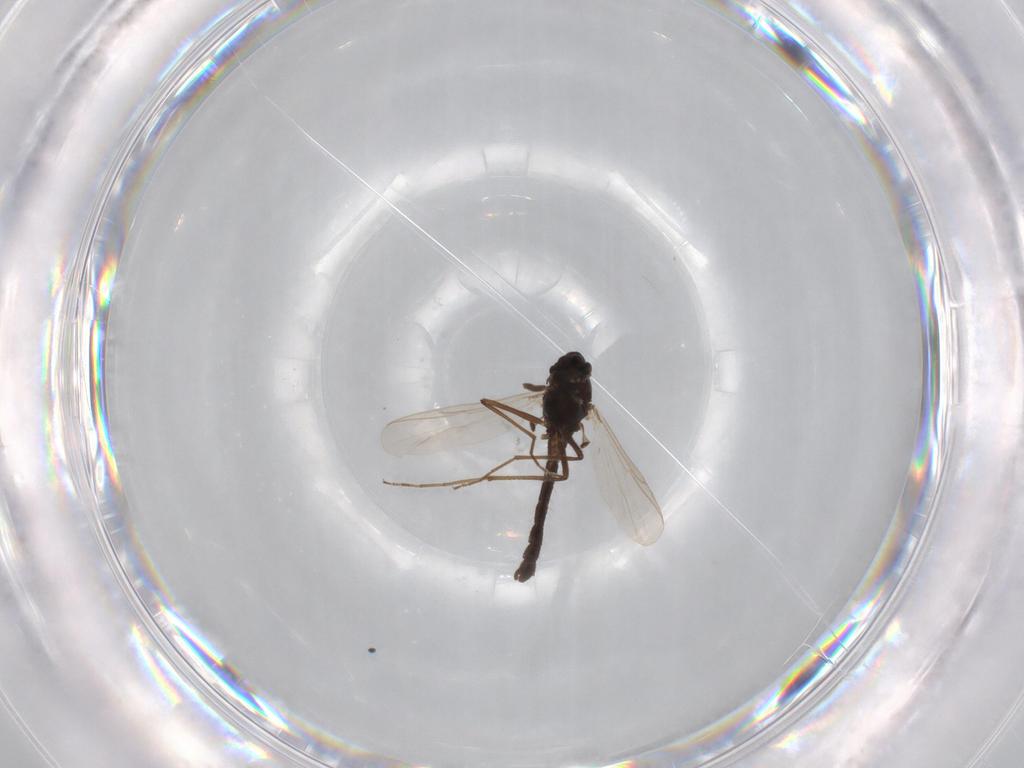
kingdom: Animalia
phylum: Arthropoda
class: Insecta
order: Diptera
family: Chironomidae
